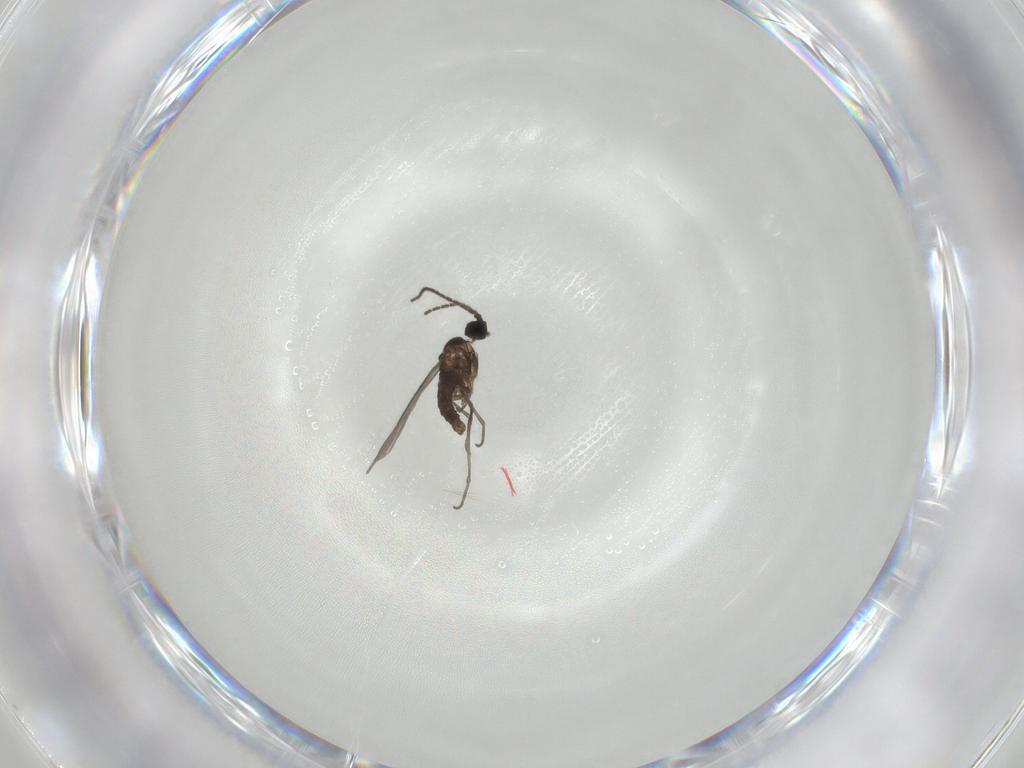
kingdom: Animalia
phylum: Arthropoda
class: Insecta
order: Diptera
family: Sciaridae
